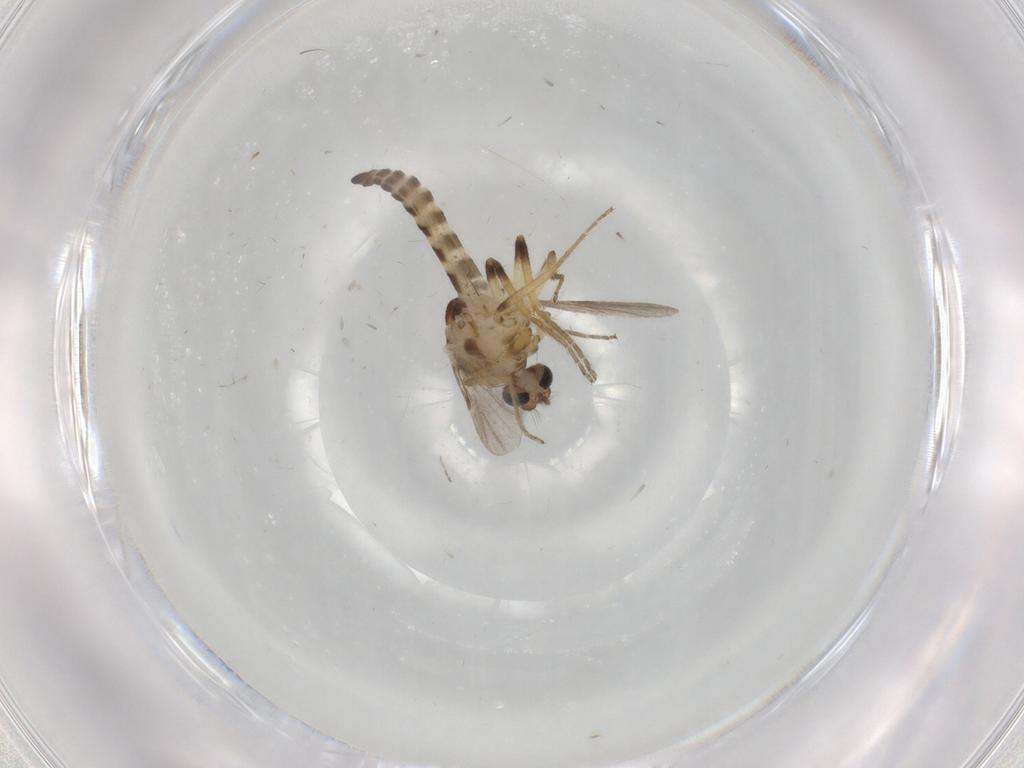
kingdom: Animalia
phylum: Arthropoda
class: Insecta
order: Diptera
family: Ceratopogonidae
